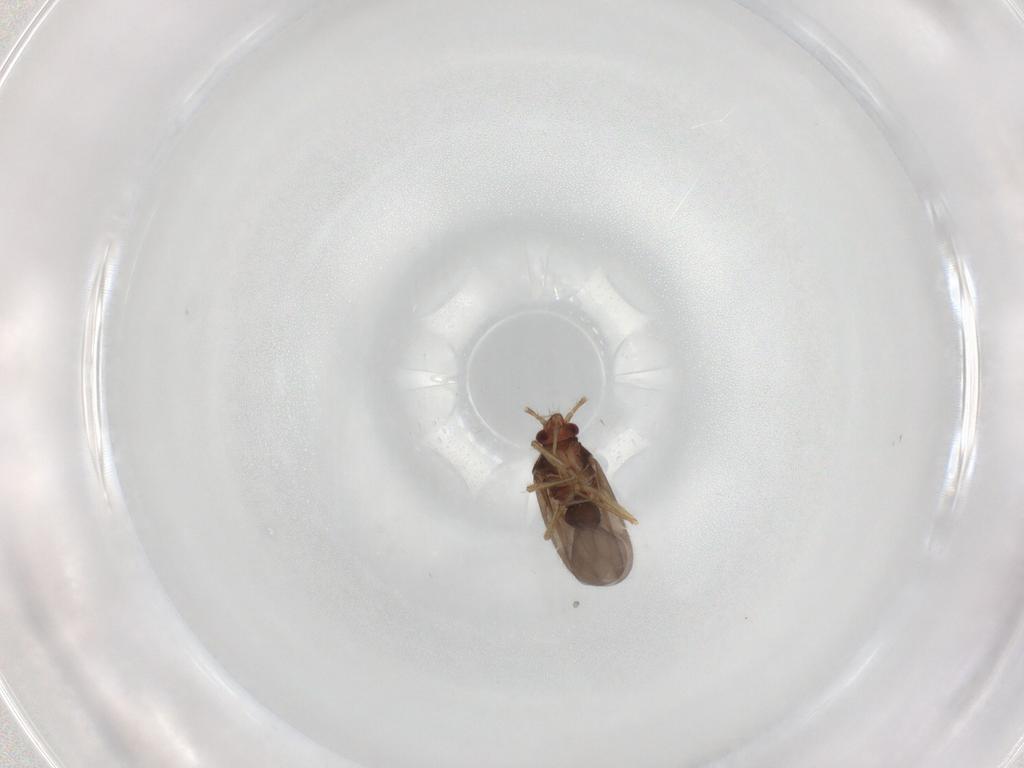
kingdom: Animalia
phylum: Arthropoda
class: Insecta
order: Hemiptera
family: Ceratocombidae
